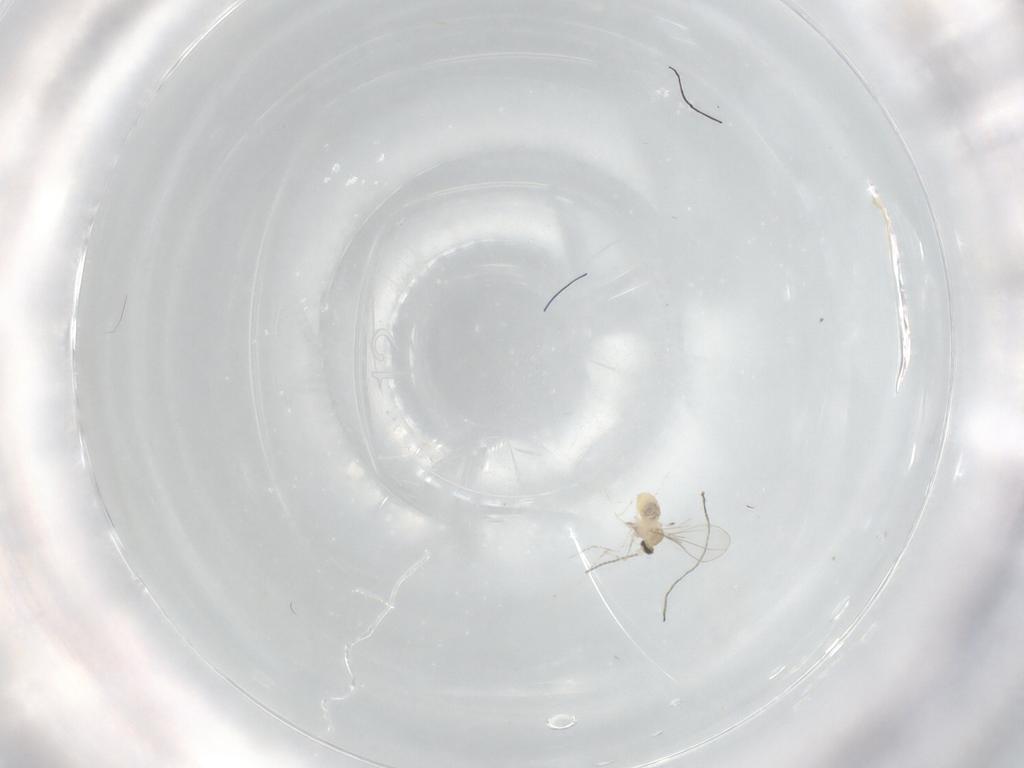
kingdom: Animalia
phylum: Arthropoda
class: Insecta
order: Diptera
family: Cecidomyiidae
